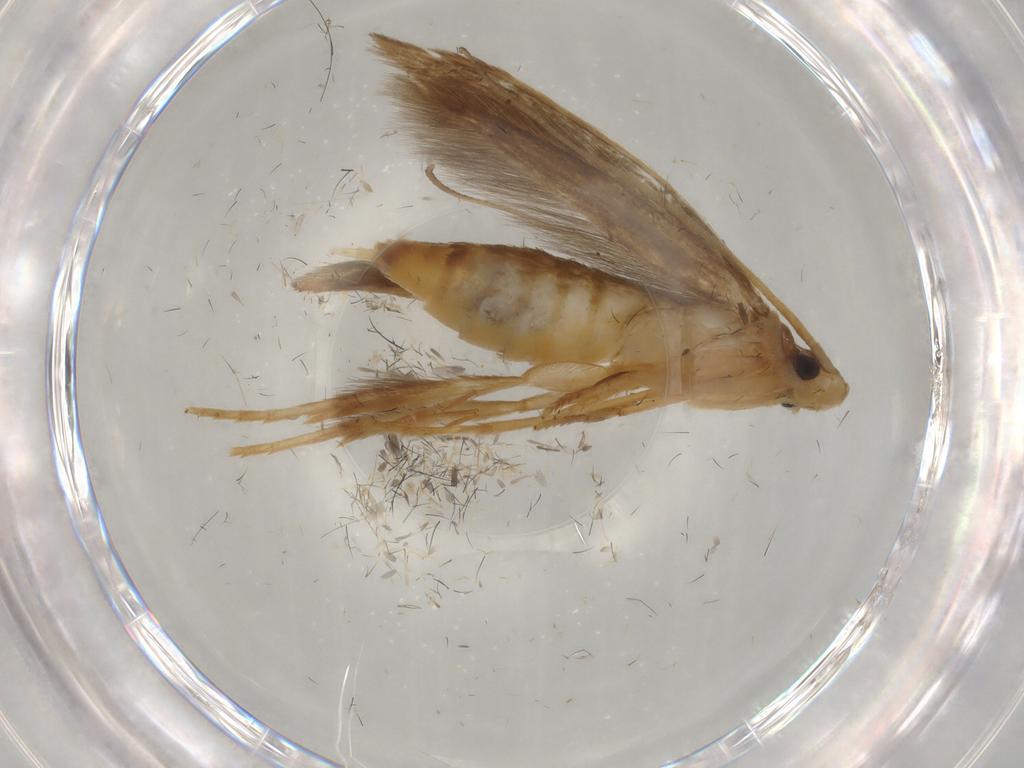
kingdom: Animalia
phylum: Arthropoda
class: Insecta
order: Lepidoptera
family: Tineidae
